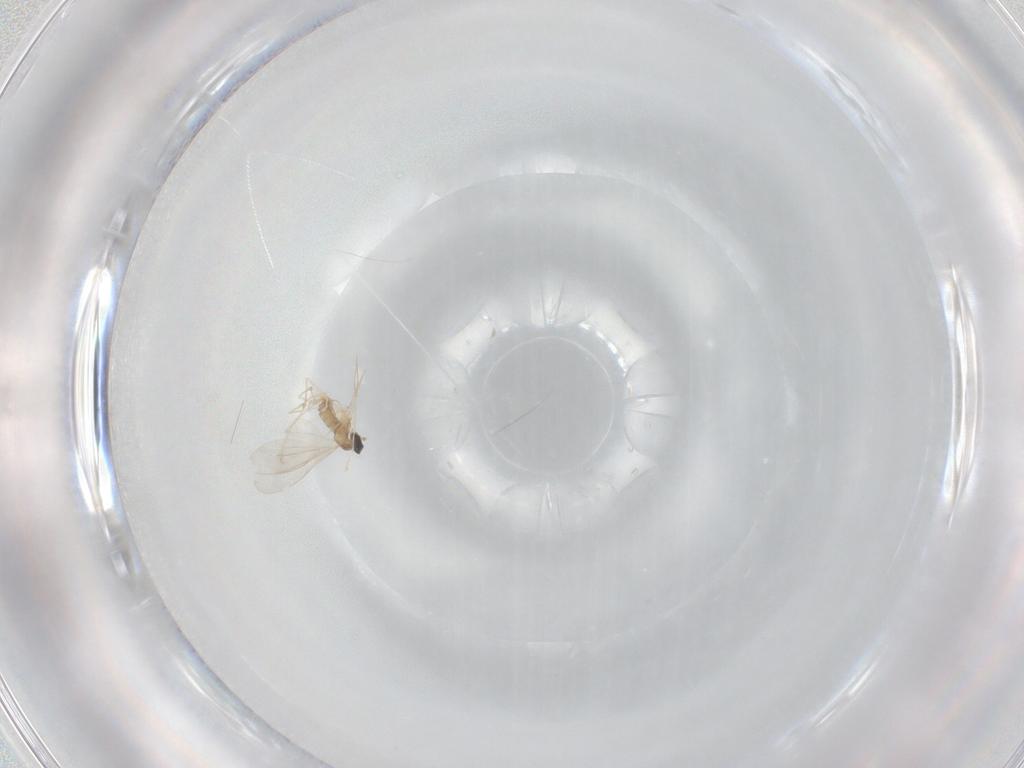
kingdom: Animalia
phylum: Arthropoda
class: Insecta
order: Diptera
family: Cecidomyiidae
